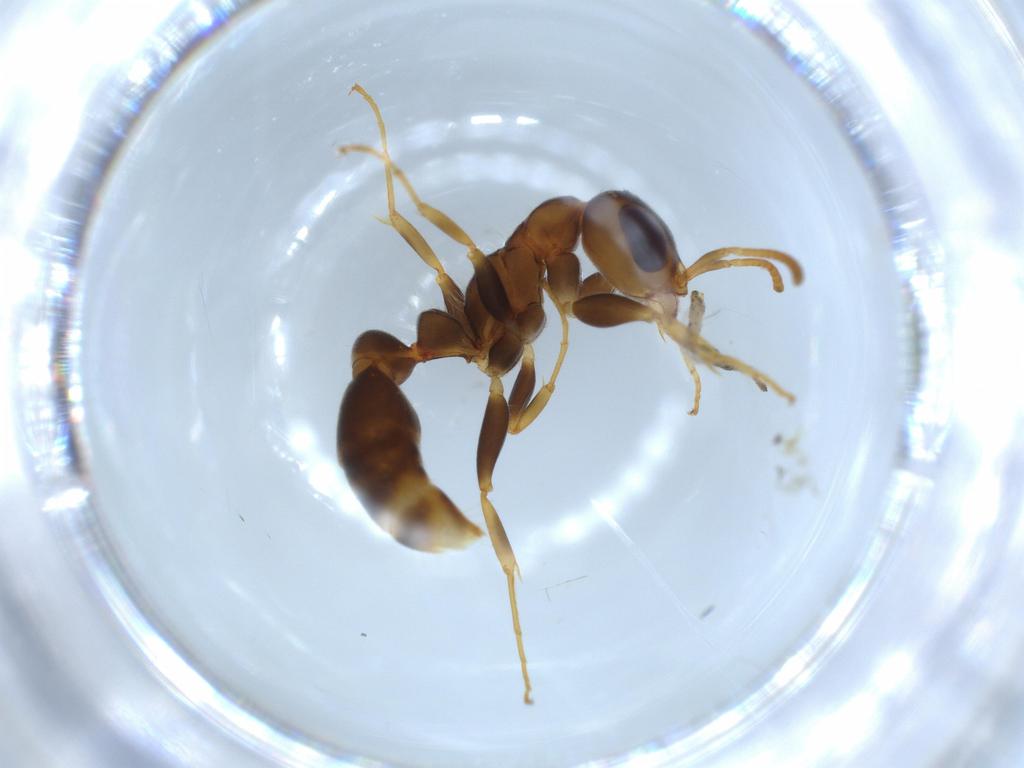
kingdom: Animalia
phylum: Arthropoda
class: Insecta
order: Hymenoptera
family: Formicidae
